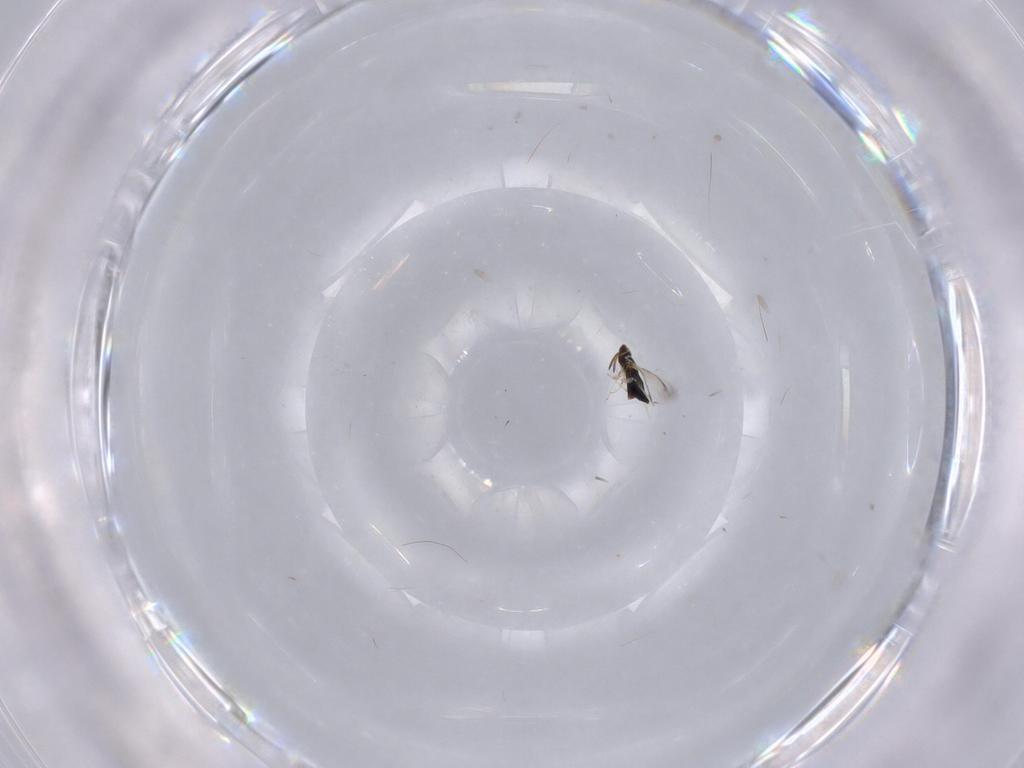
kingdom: Animalia
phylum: Arthropoda
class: Insecta
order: Hymenoptera
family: Signiphoridae
